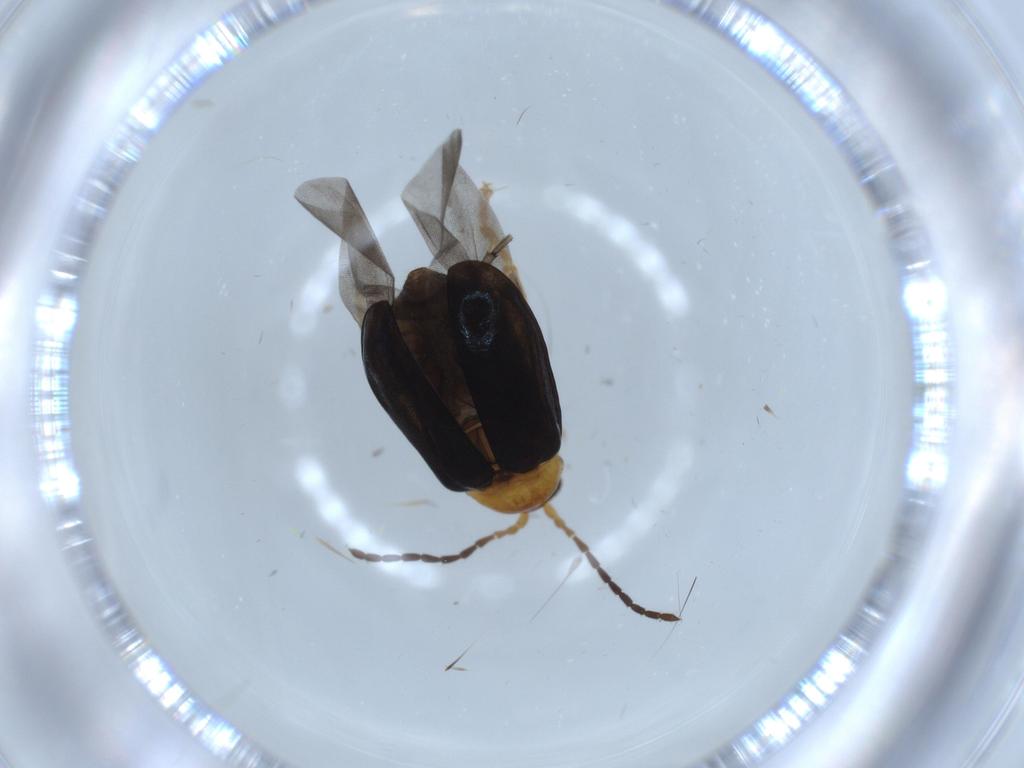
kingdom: Animalia
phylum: Arthropoda
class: Insecta
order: Coleoptera
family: Chrysomelidae
